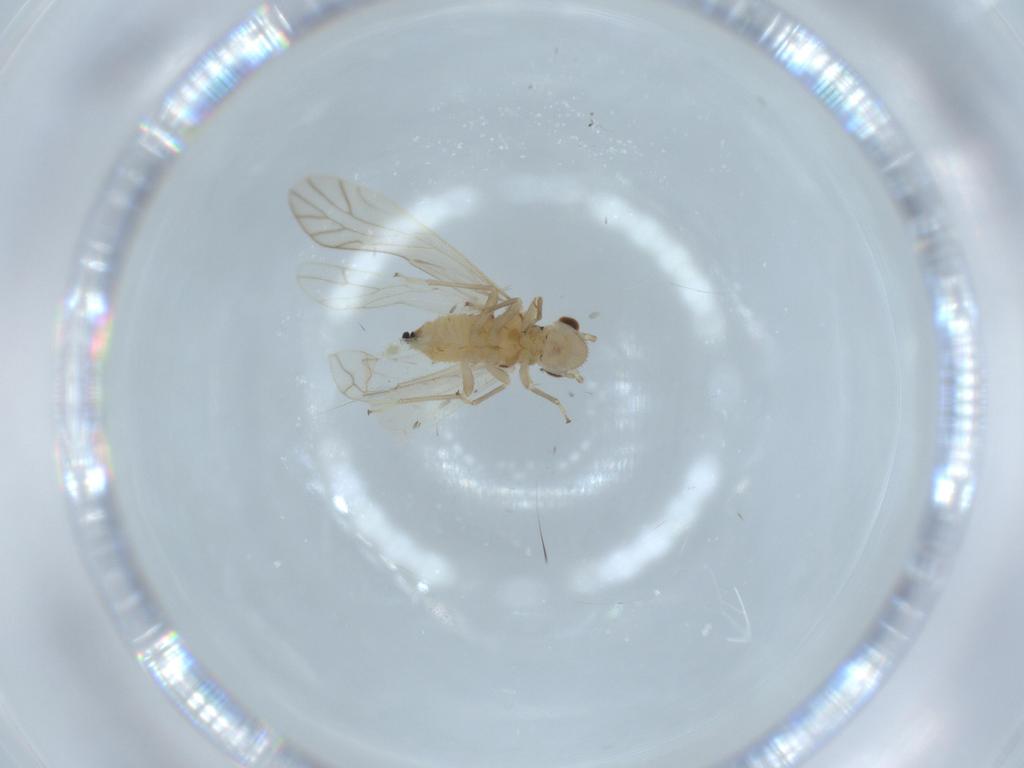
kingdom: Animalia
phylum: Arthropoda
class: Insecta
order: Psocodea
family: Caeciliusidae
